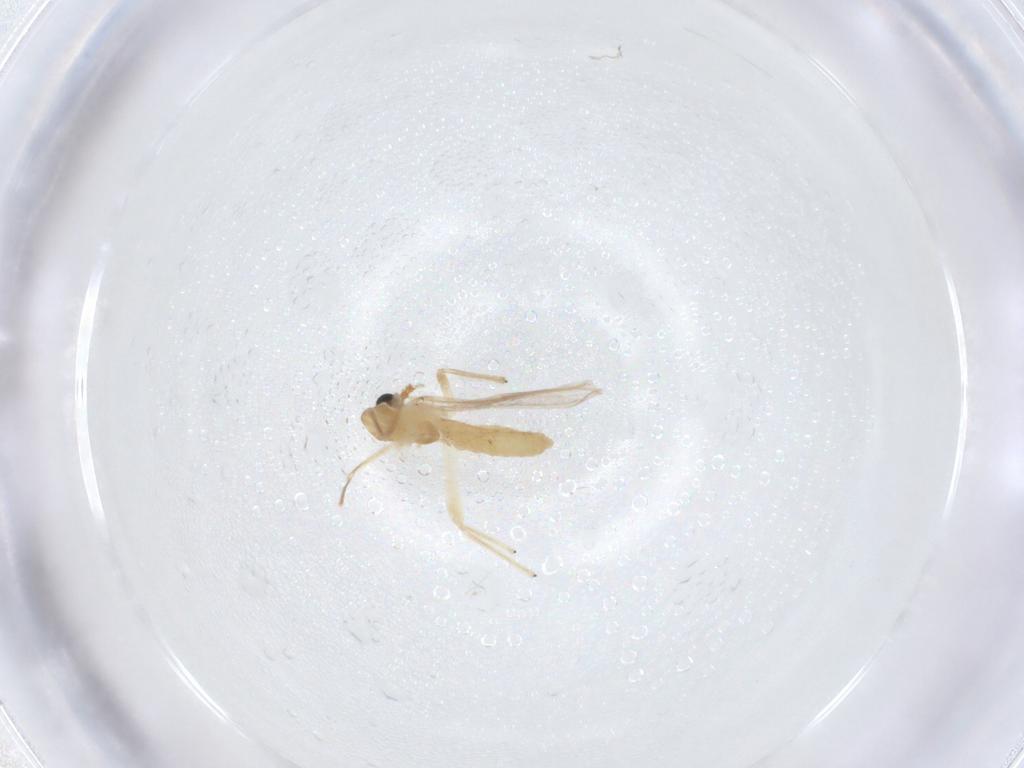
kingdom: Animalia
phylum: Arthropoda
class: Insecta
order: Diptera
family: Chironomidae
